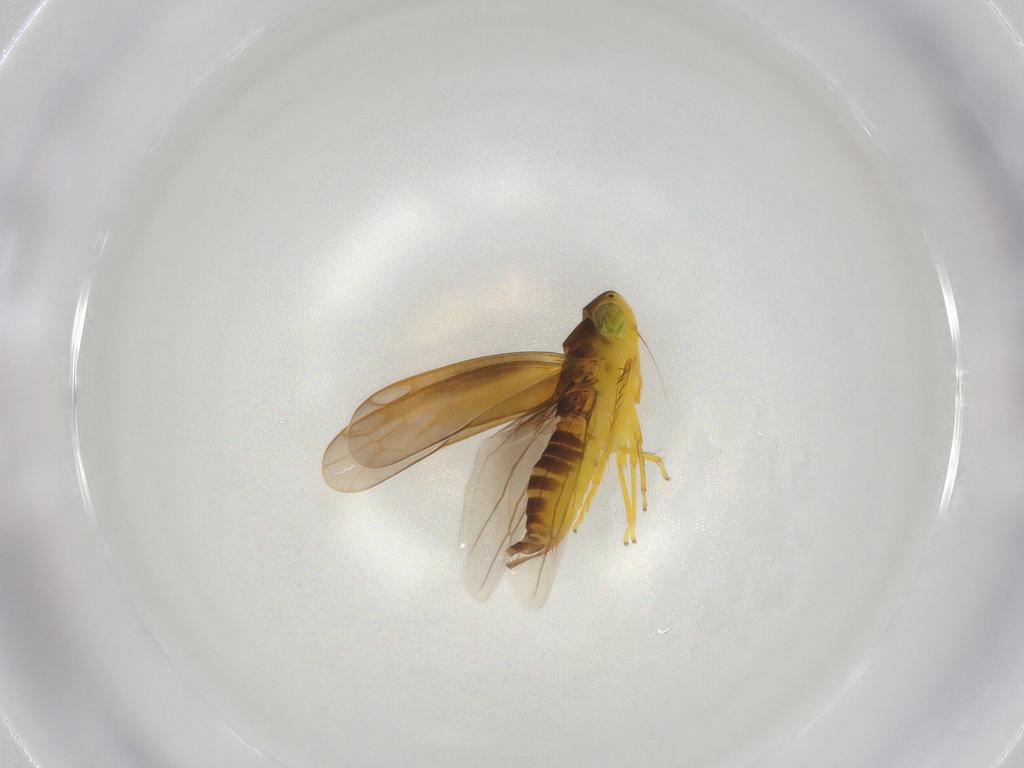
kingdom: Animalia
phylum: Arthropoda
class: Insecta
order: Hemiptera
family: Cicadellidae
